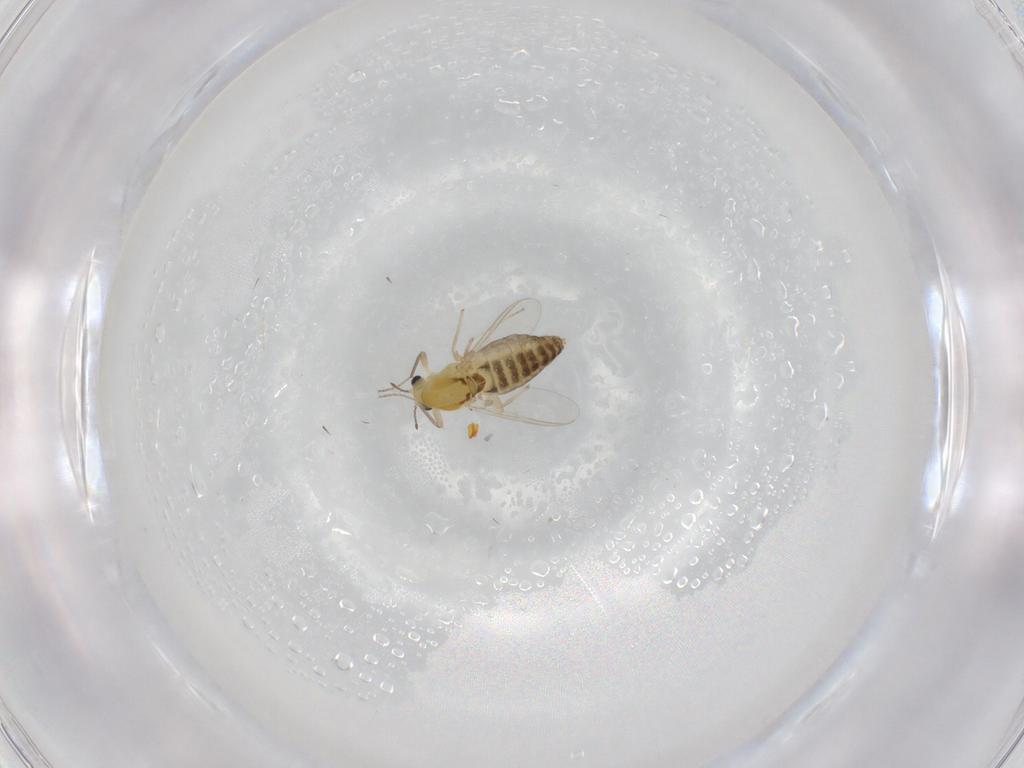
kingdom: Animalia
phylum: Arthropoda
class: Insecta
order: Diptera
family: Chironomidae
